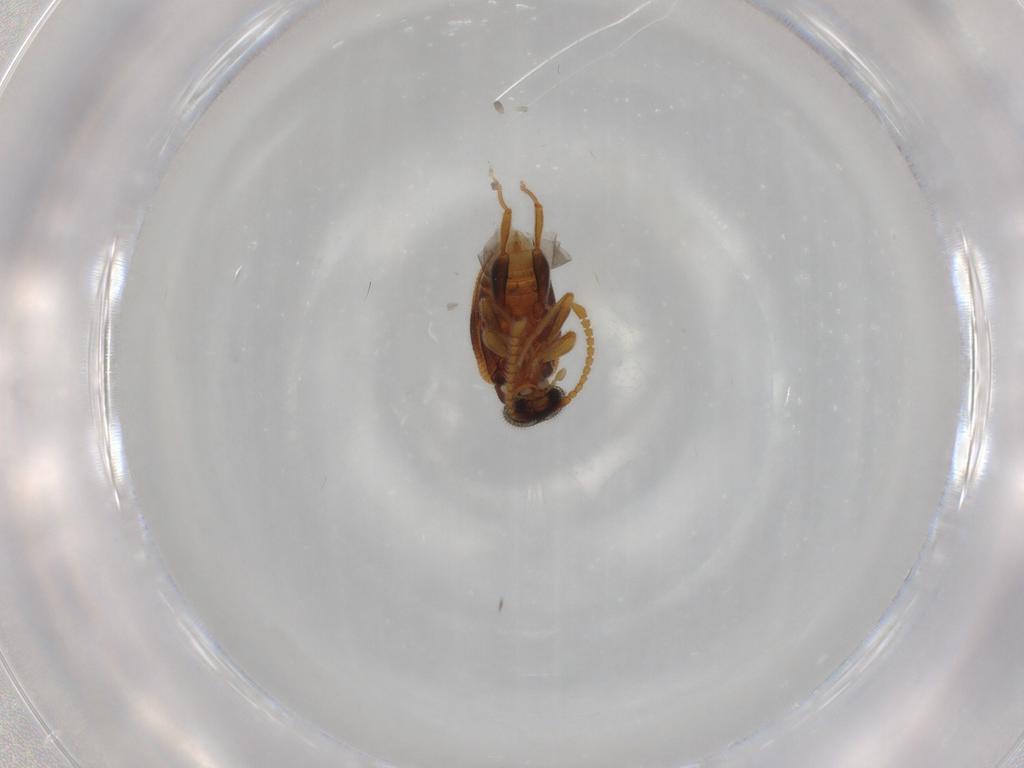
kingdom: Animalia
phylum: Arthropoda
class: Insecta
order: Coleoptera
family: Aderidae
